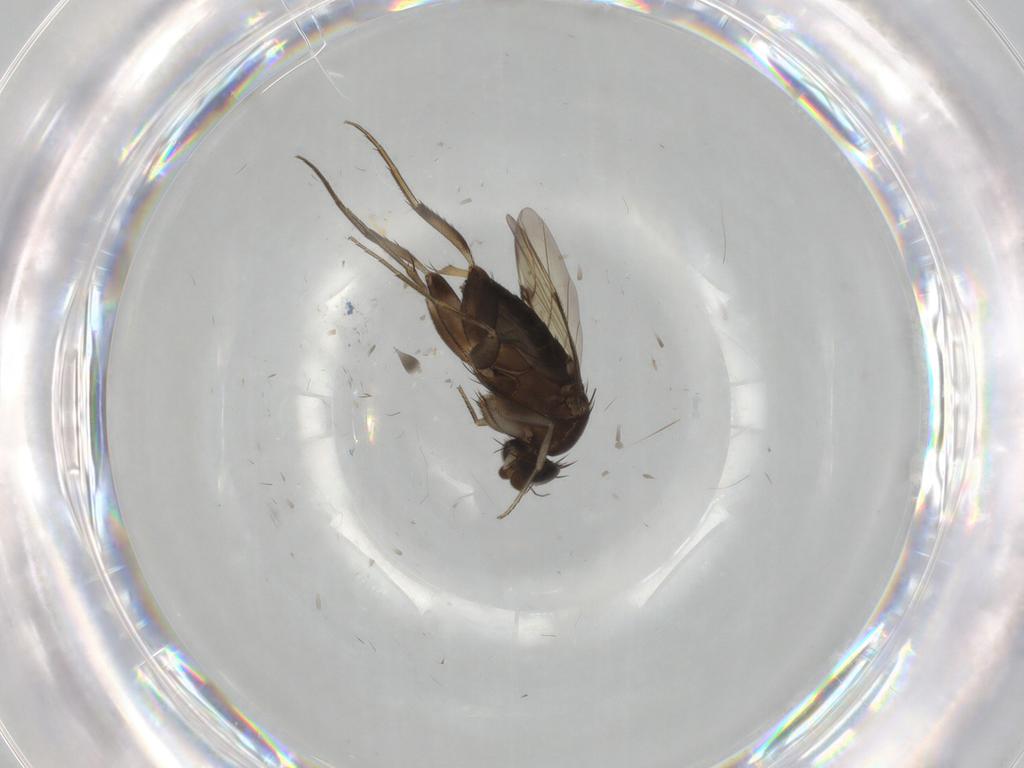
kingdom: Animalia
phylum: Arthropoda
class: Insecta
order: Diptera
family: Phoridae
